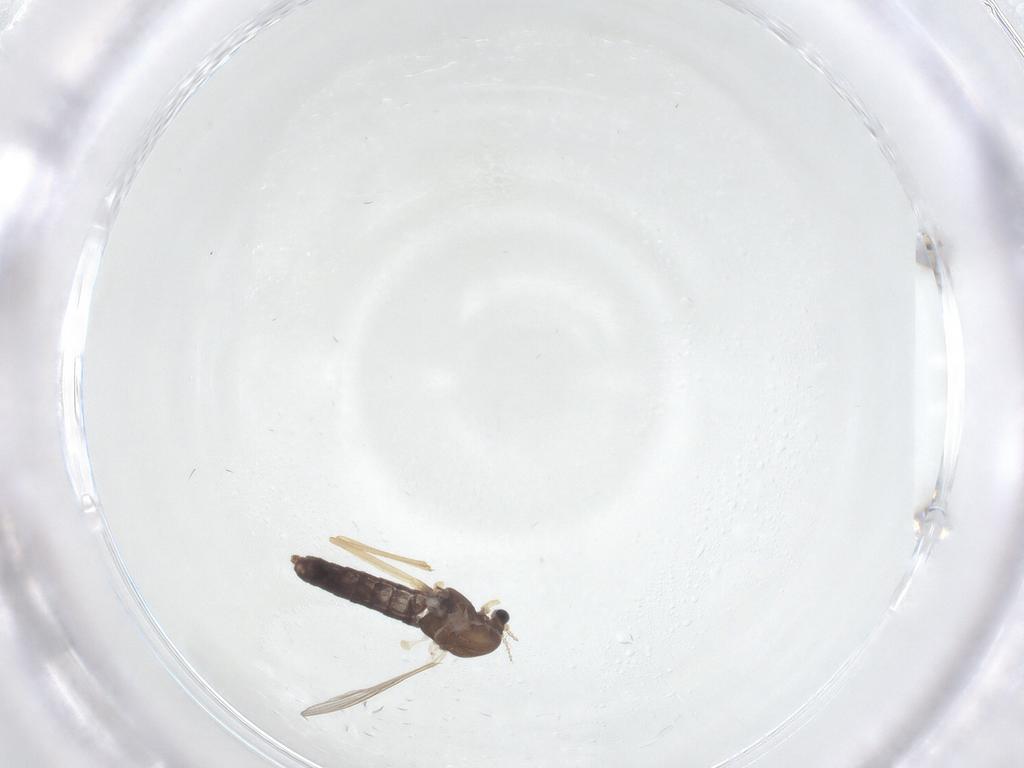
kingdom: Animalia
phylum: Arthropoda
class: Insecta
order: Diptera
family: Chironomidae
